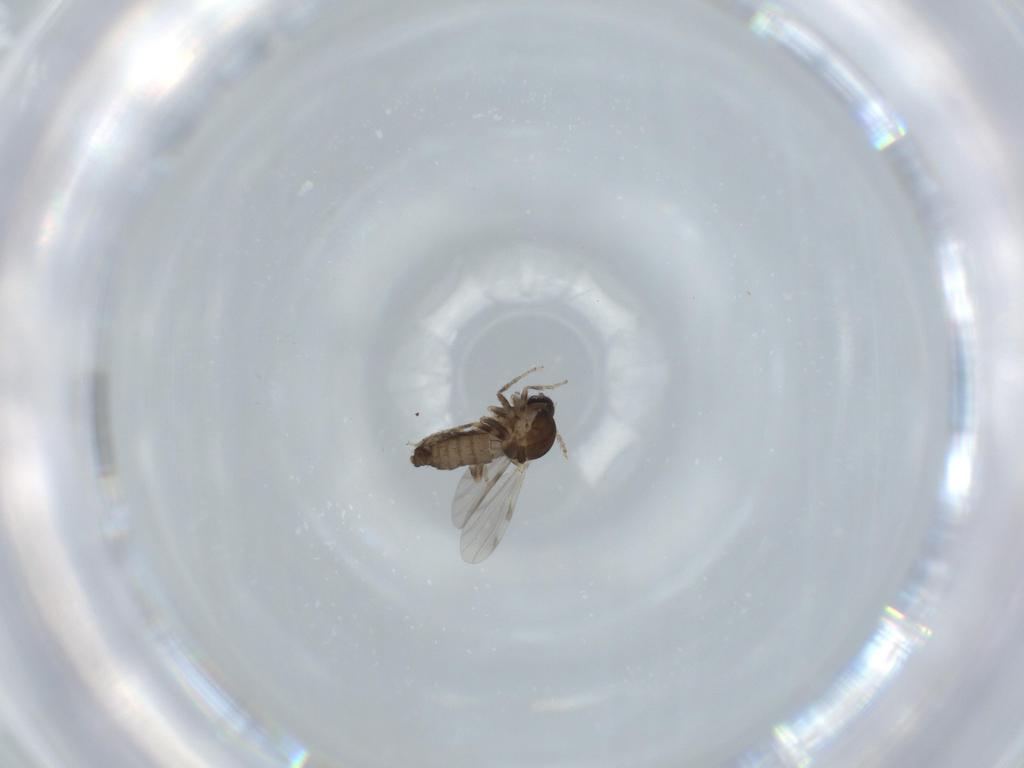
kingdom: Animalia
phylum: Arthropoda
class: Insecta
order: Diptera
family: Ceratopogonidae
